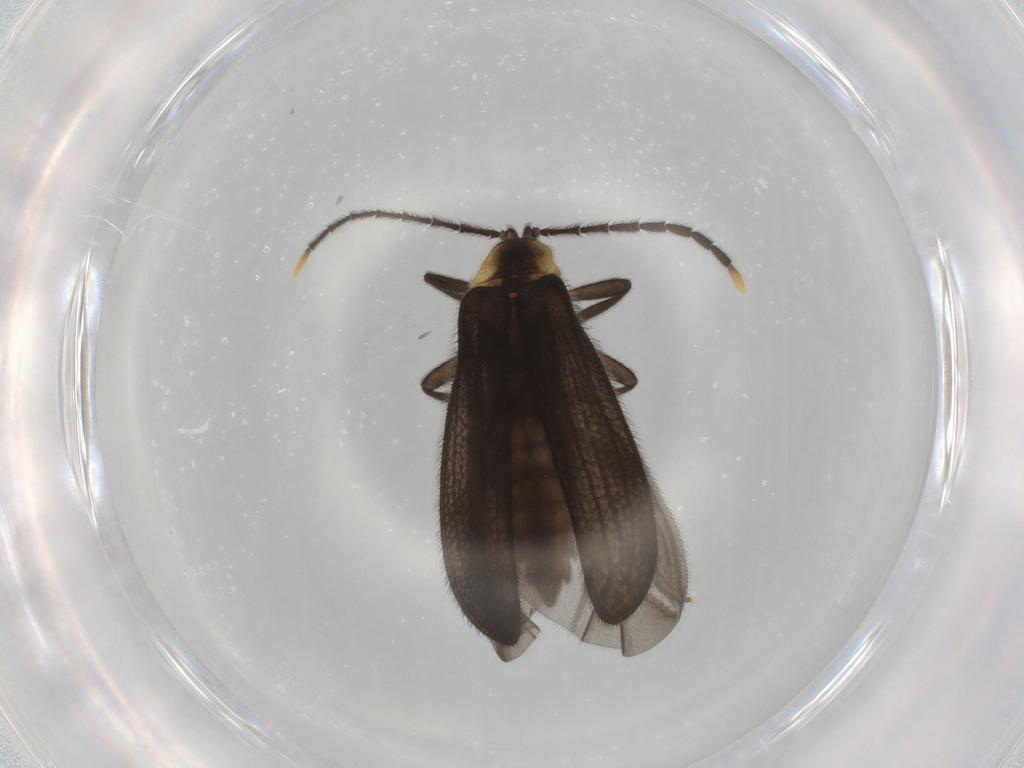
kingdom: Animalia
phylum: Arthropoda
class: Insecta
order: Coleoptera
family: Lycidae
